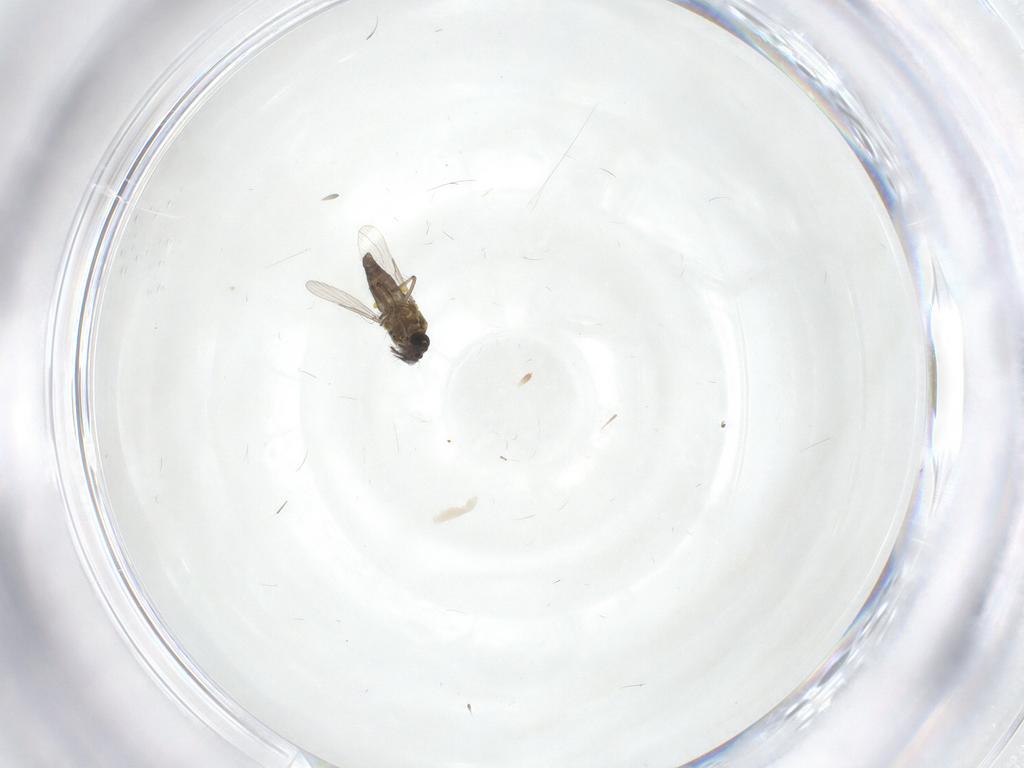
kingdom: Animalia
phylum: Arthropoda
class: Insecta
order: Diptera
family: Ceratopogonidae
